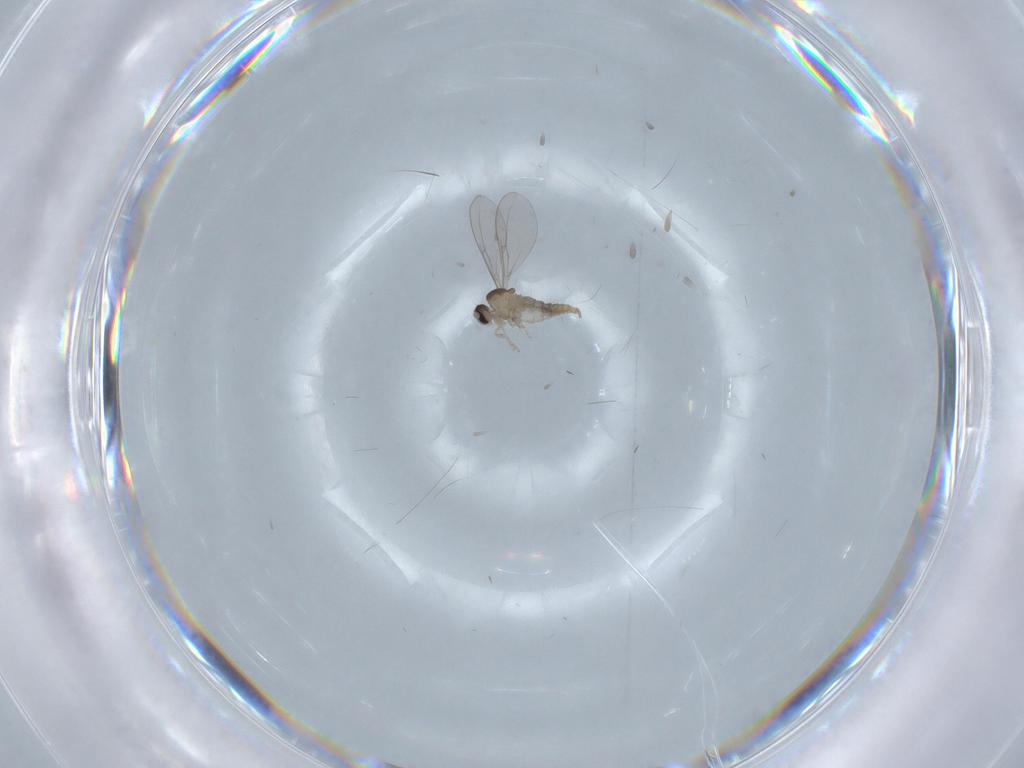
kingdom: Animalia
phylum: Arthropoda
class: Insecta
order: Diptera
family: Cecidomyiidae
